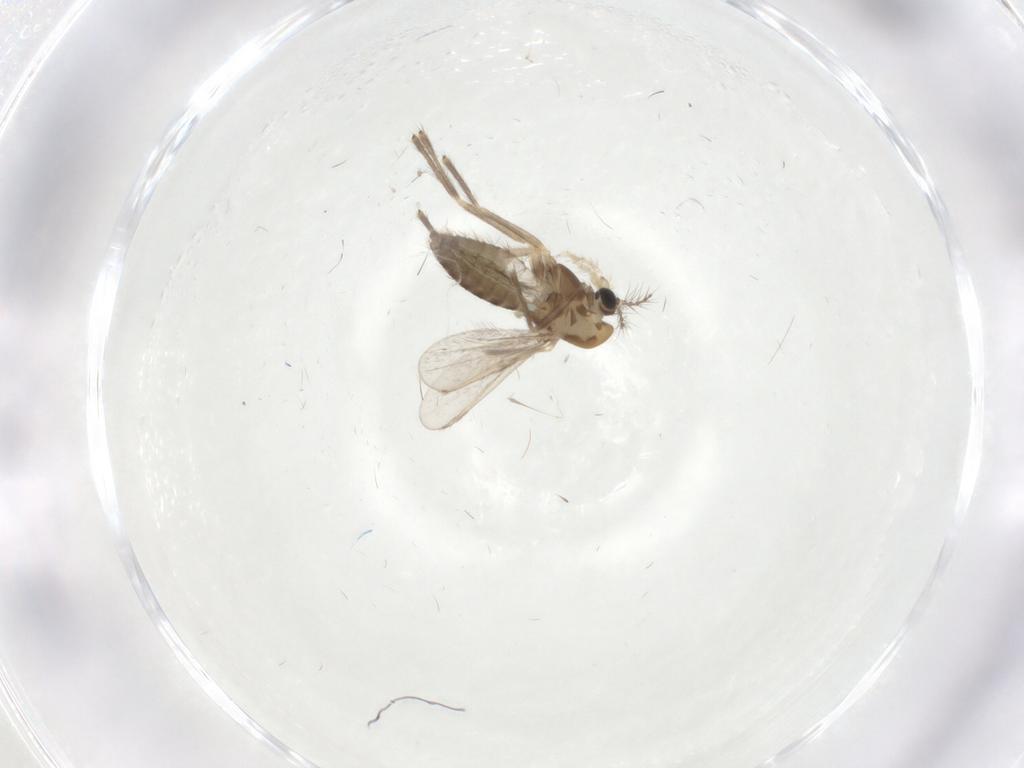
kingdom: Animalia
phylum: Arthropoda
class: Insecta
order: Diptera
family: Chironomidae
